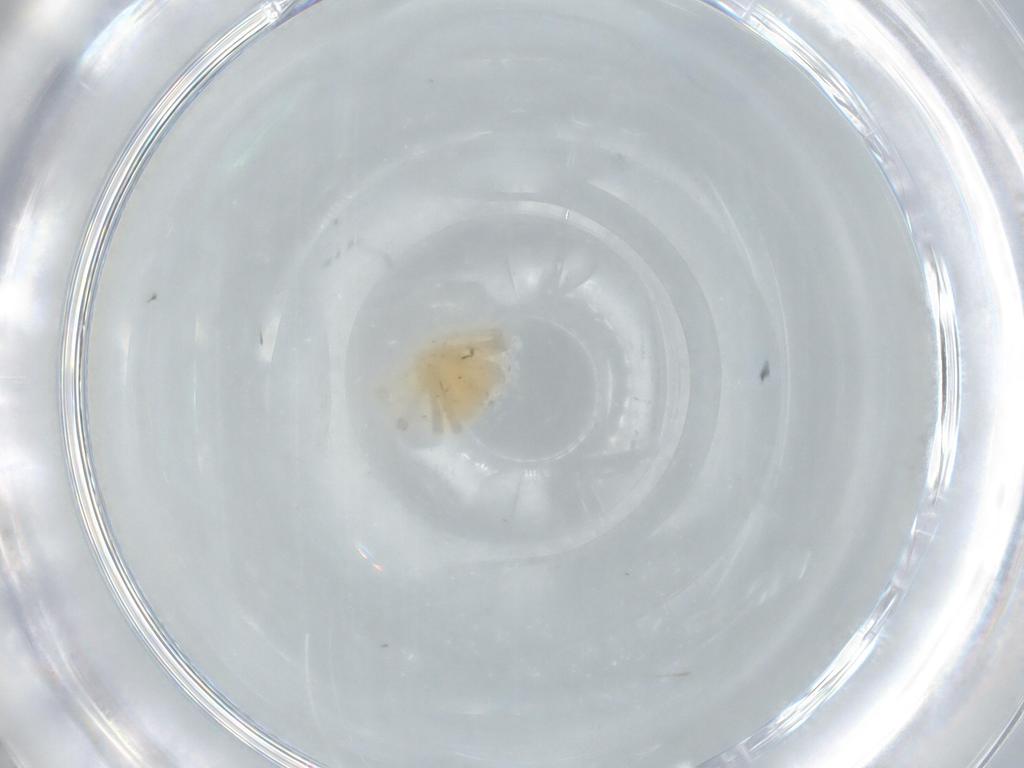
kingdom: Animalia
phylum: Arthropoda
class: Arachnida
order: Trombidiformes
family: Anystidae
